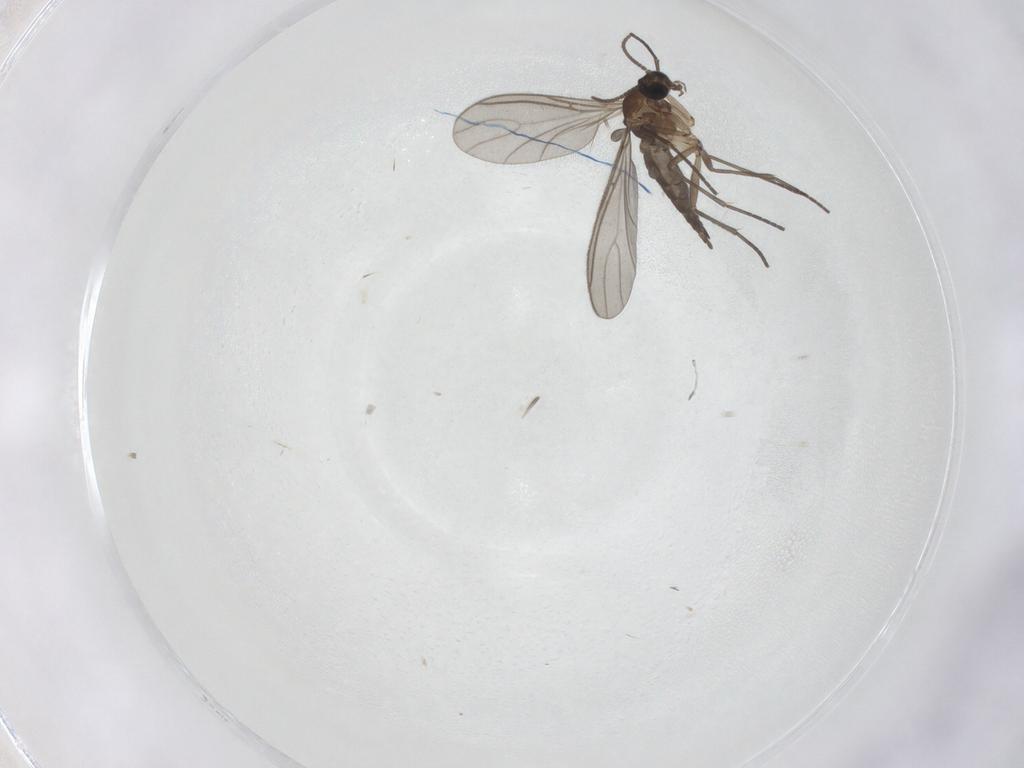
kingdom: Animalia
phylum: Arthropoda
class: Insecta
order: Diptera
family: Sciaridae
